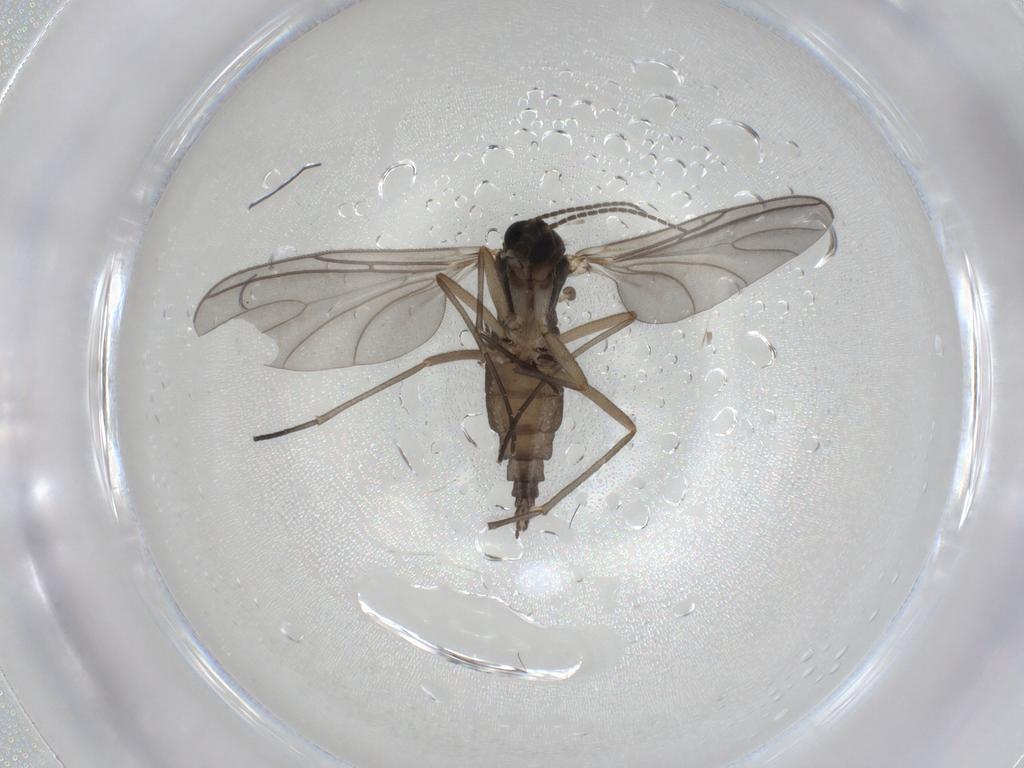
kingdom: Animalia
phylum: Arthropoda
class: Insecta
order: Diptera
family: Sciaridae
